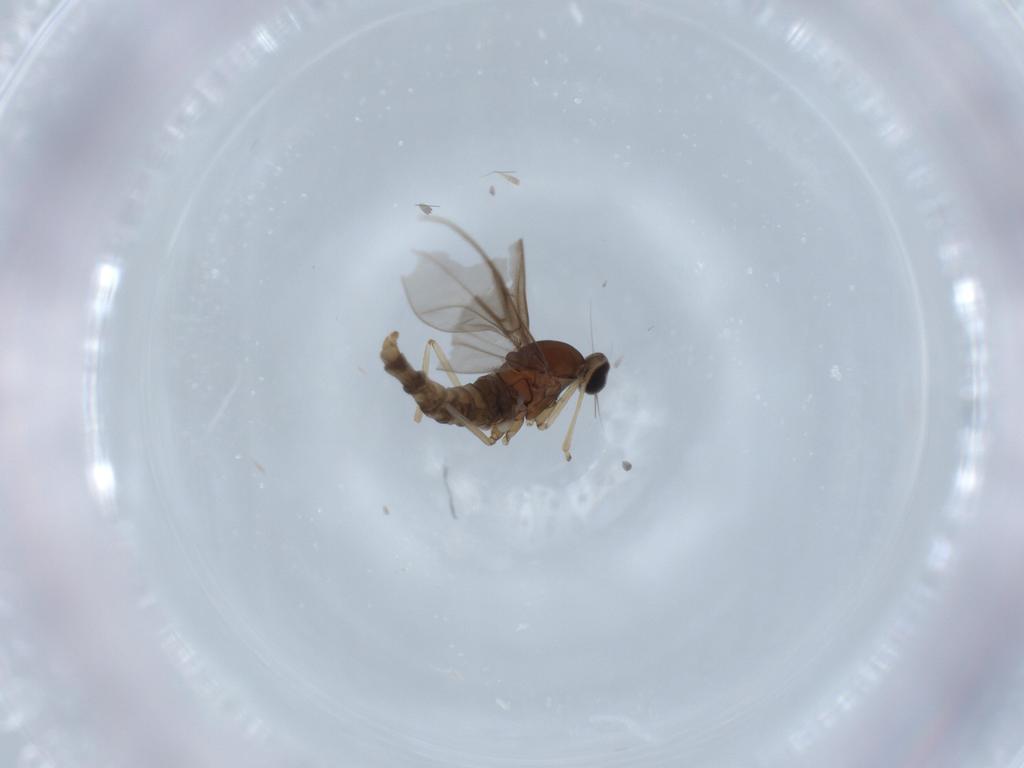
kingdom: Animalia
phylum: Arthropoda
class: Insecta
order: Diptera
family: Cecidomyiidae
